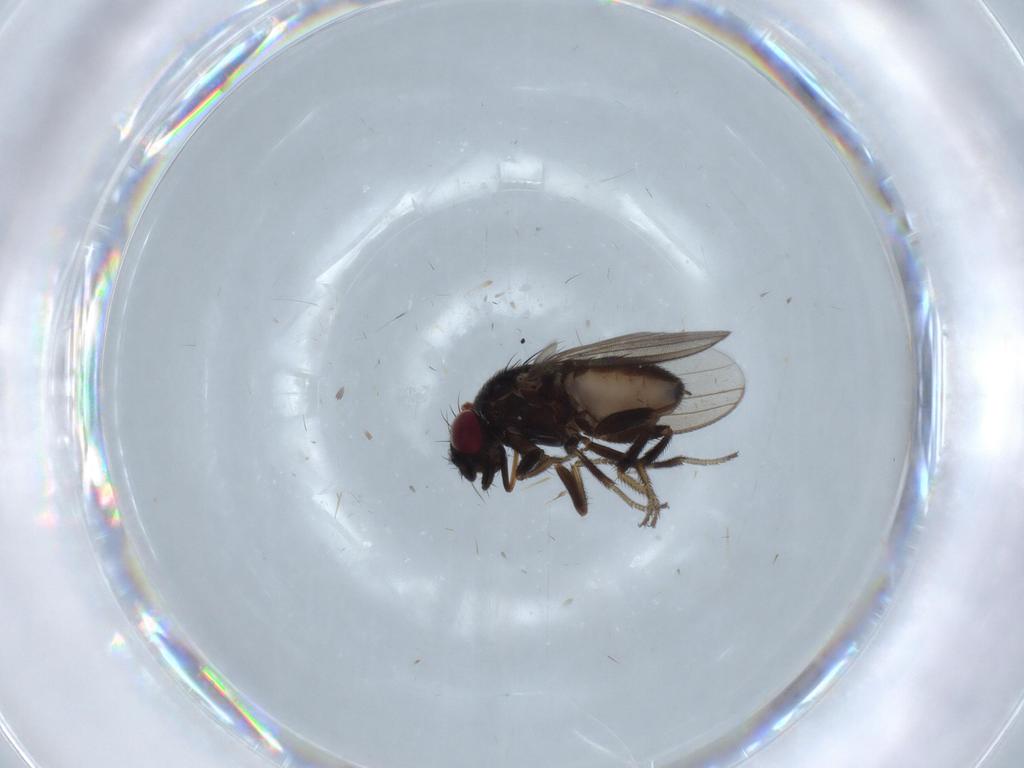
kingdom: Animalia
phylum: Arthropoda
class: Insecta
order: Diptera
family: Milichiidae
